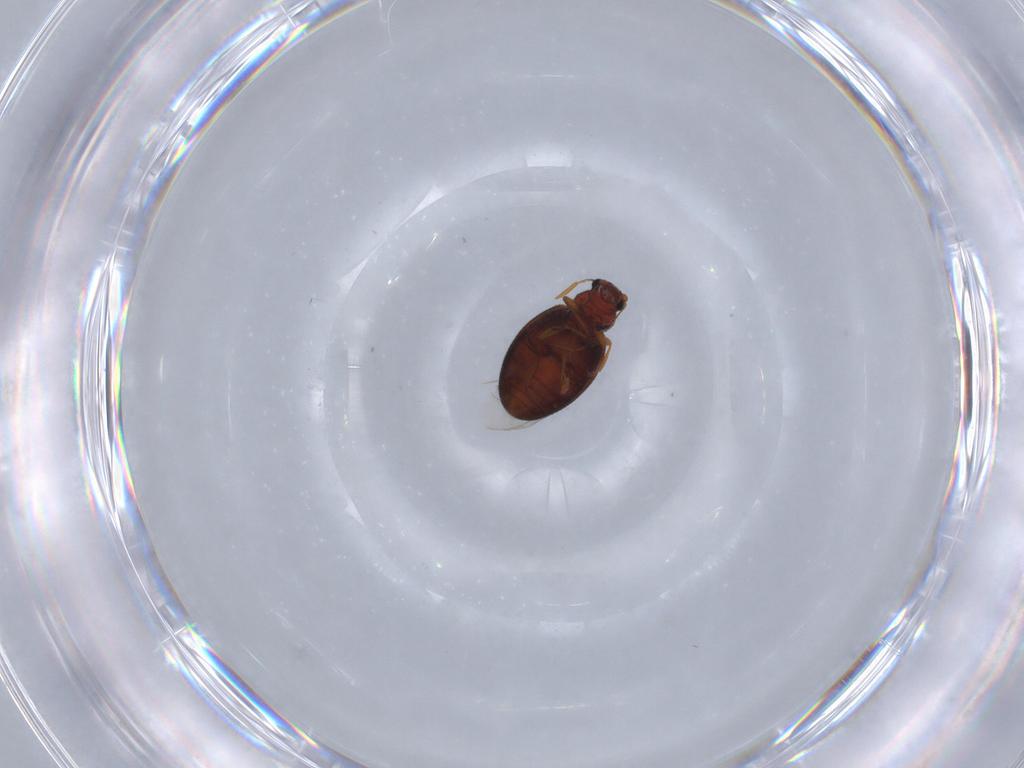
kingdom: Animalia
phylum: Arthropoda
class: Insecta
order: Coleoptera
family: Latridiidae
